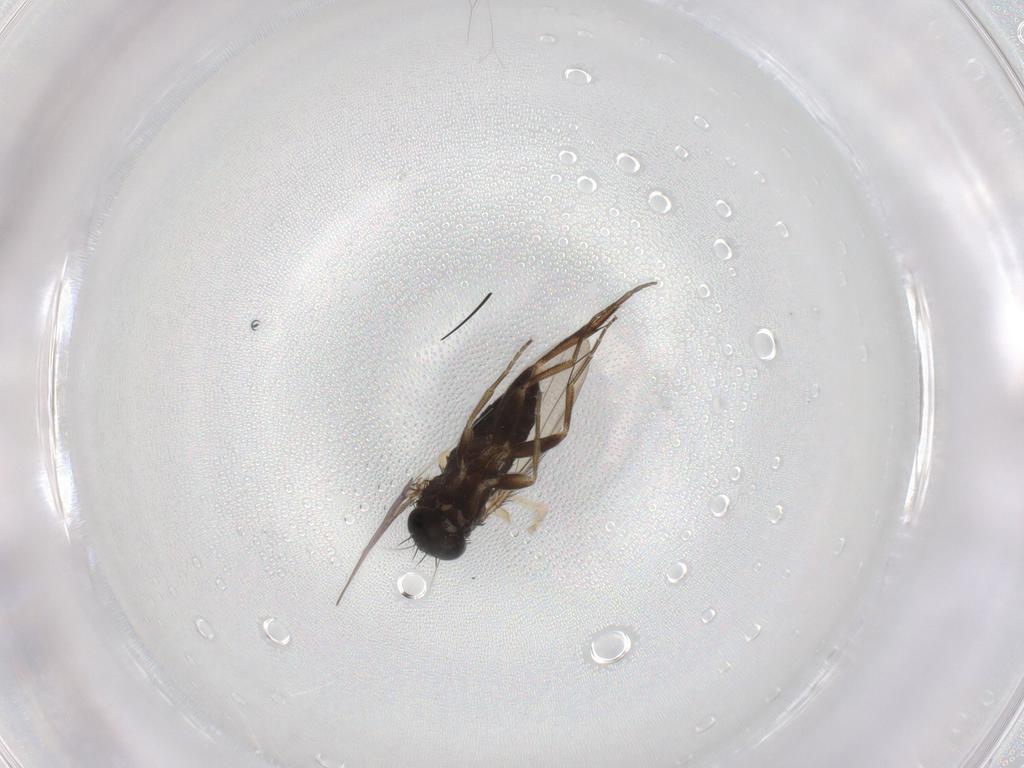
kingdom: Animalia
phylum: Arthropoda
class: Insecta
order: Diptera
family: Phoridae
